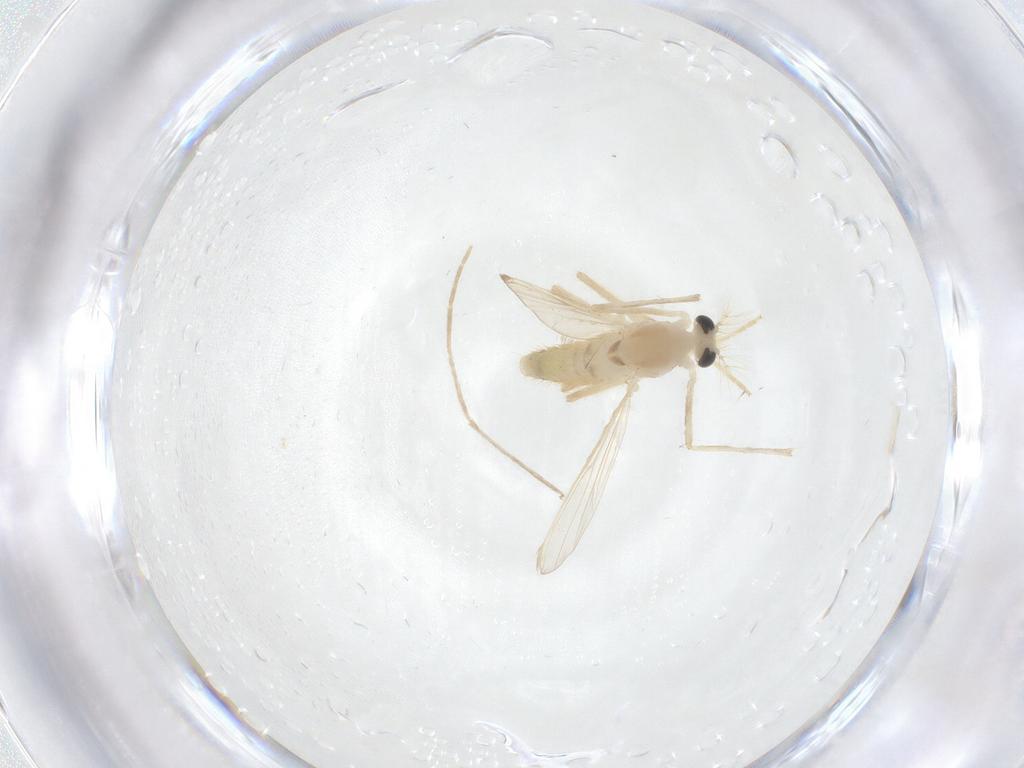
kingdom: Animalia
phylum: Arthropoda
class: Insecta
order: Diptera
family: Chironomidae
